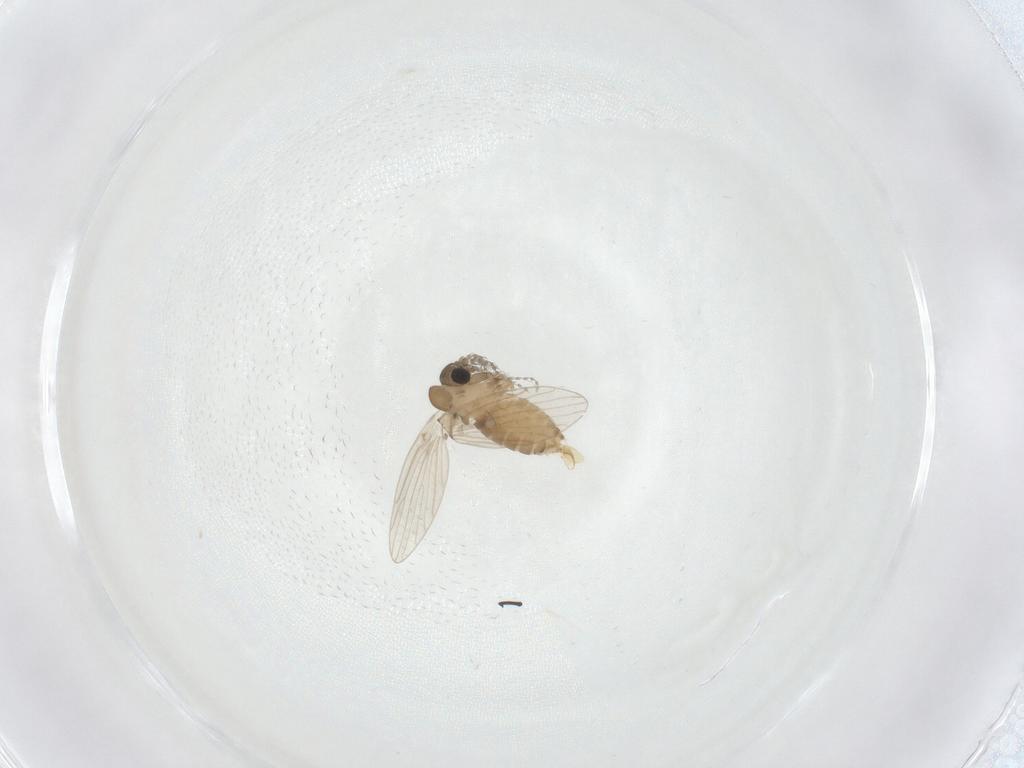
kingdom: Animalia
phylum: Arthropoda
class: Insecta
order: Diptera
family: Psychodidae
